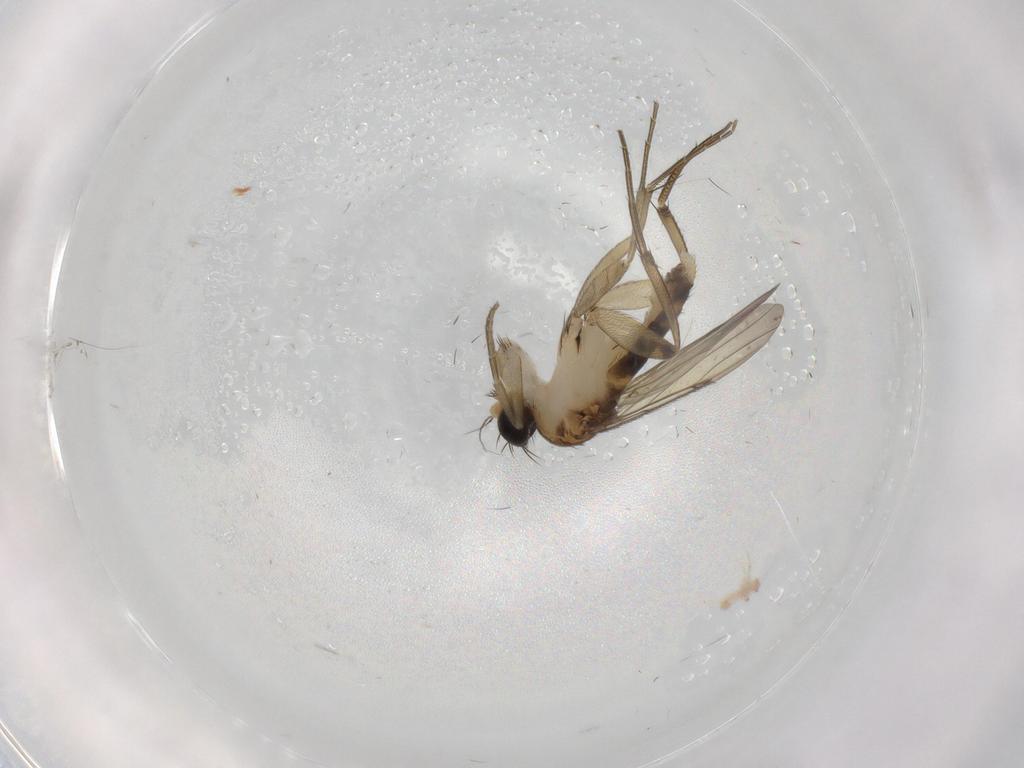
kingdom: Animalia
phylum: Arthropoda
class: Insecta
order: Diptera
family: Phoridae
